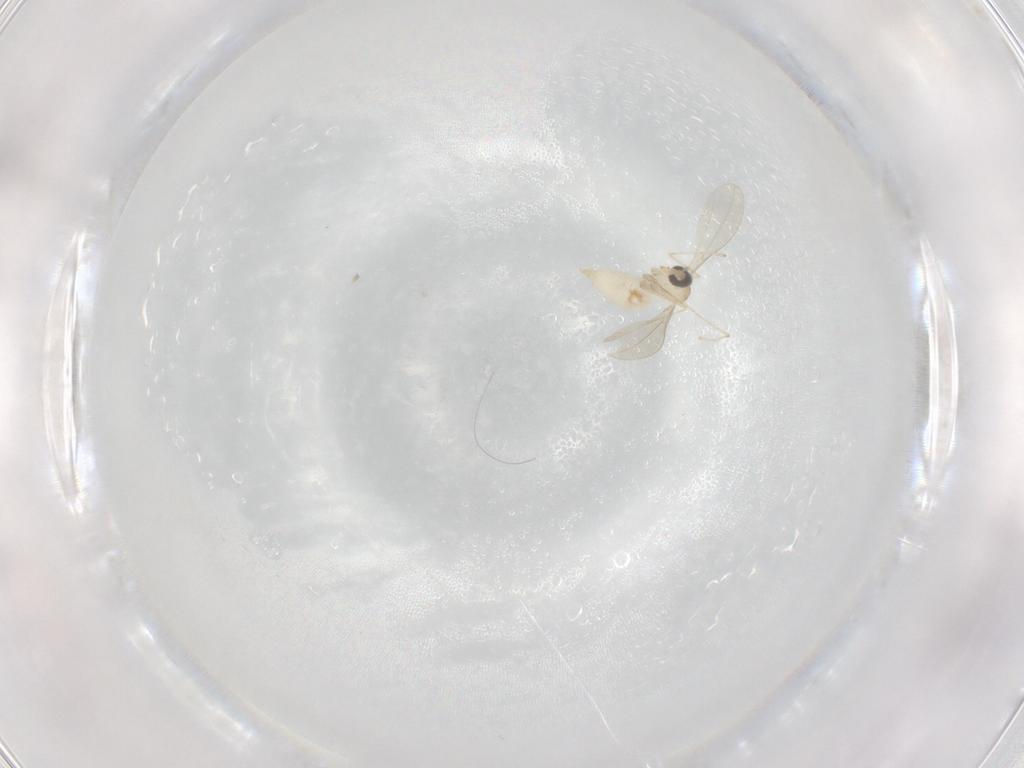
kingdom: Animalia
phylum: Arthropoda
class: Insecta
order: Diptera
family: Cecidomyiidae
